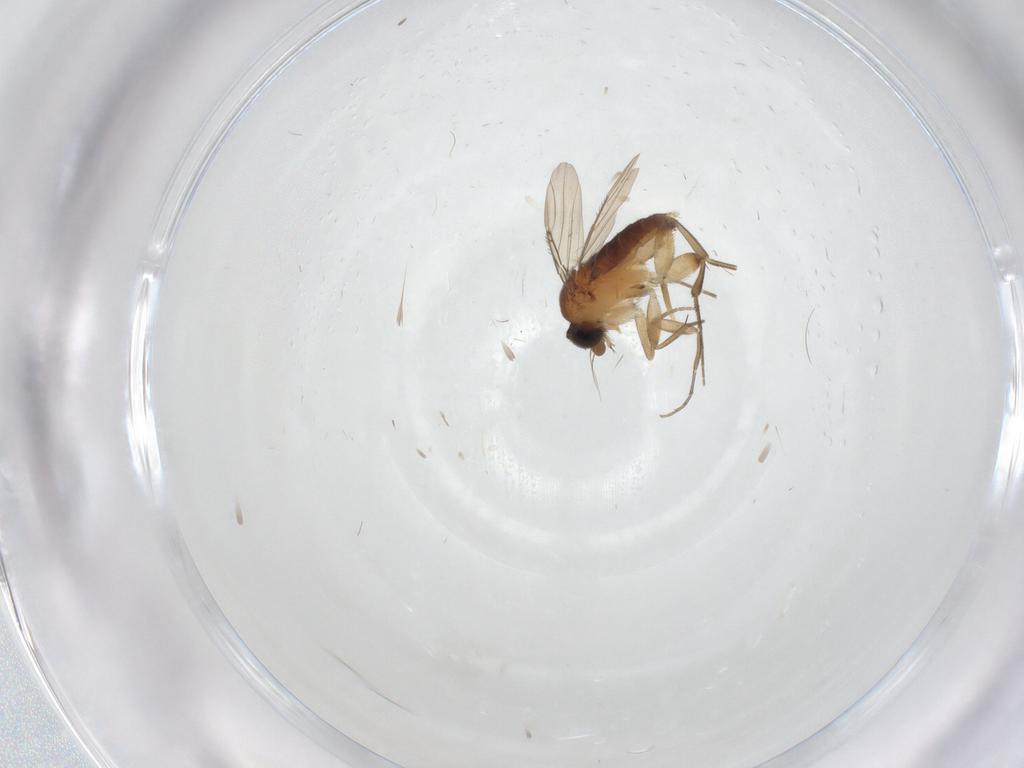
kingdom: Animalia
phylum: Arthropoda
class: Insecta
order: Diptera
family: Phoridae
